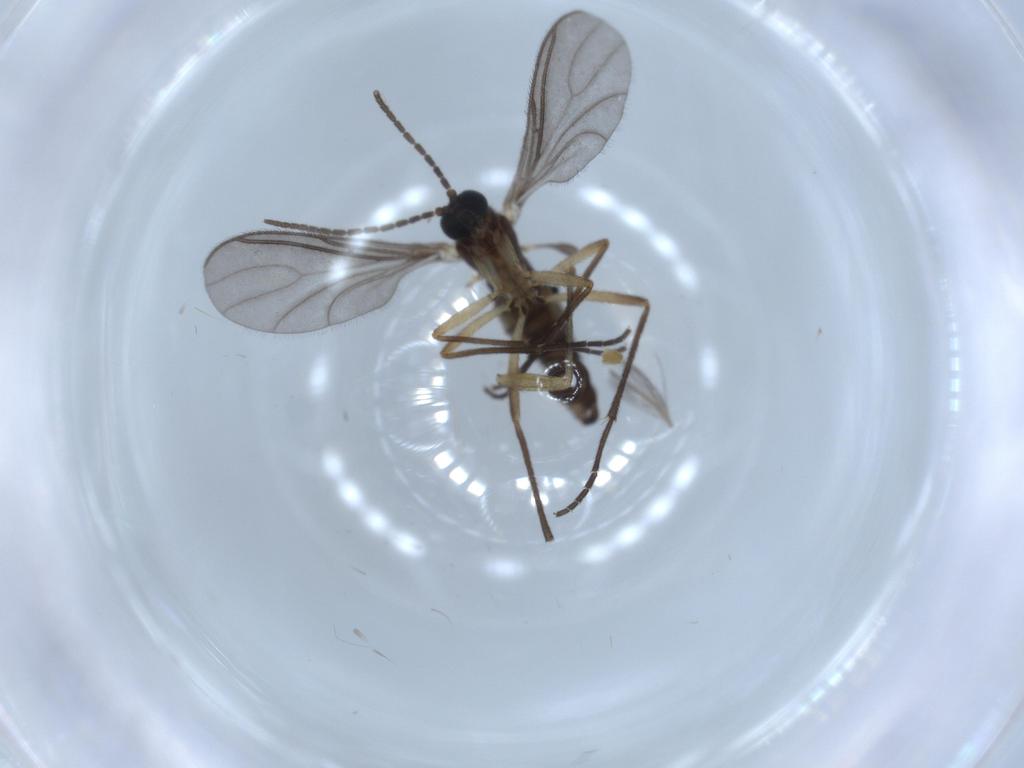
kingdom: Animalia
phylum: Arthropoda
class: Insecta
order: Diptera
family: Chironomidae
